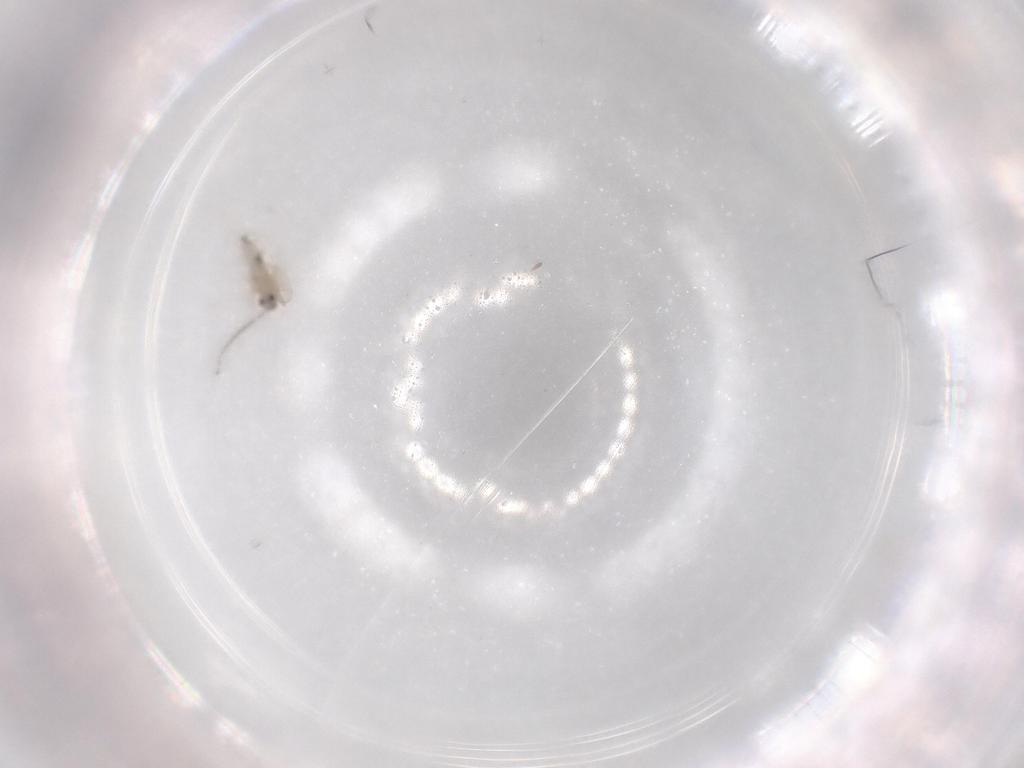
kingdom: Animalia
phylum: Arthropoda
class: Insecta
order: Diptera
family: Cecidomyiidae
